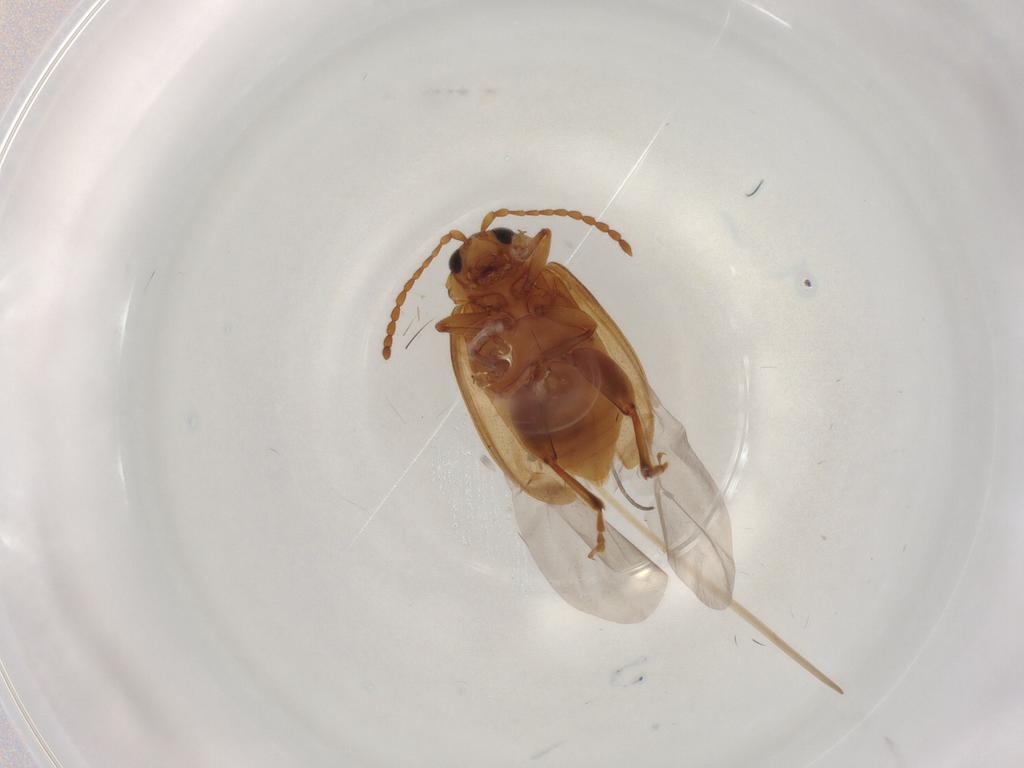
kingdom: Animalia
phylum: Arthropoda
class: Insecta
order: Coleoptera
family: Chrysomelidae
